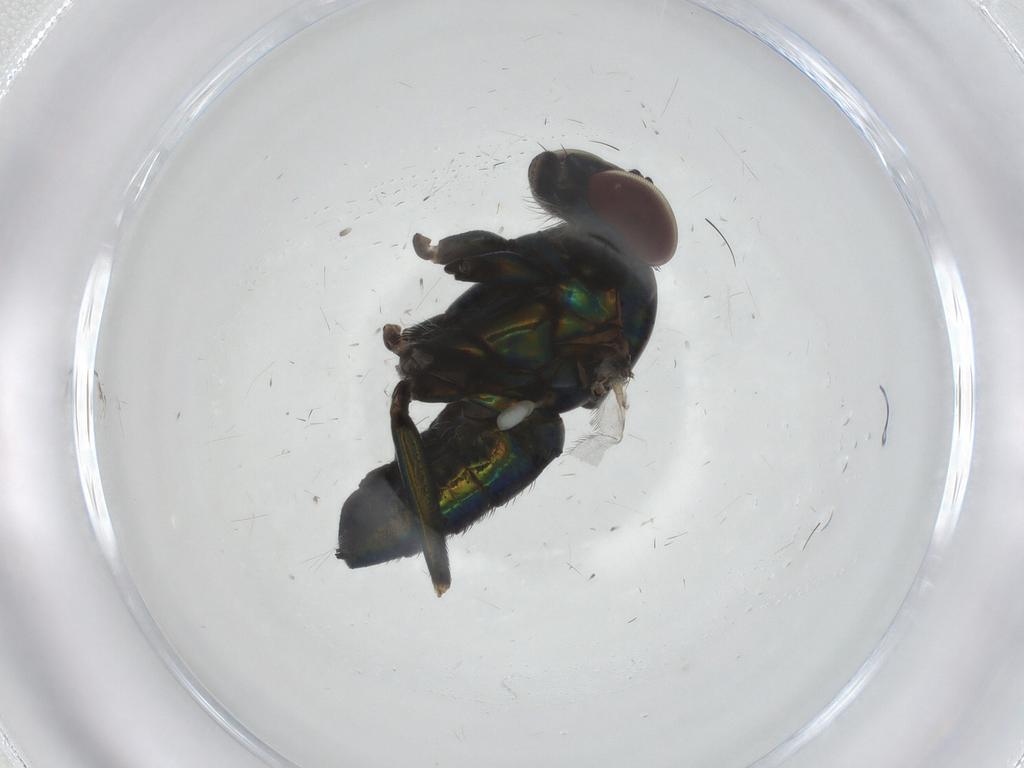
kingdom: Animalia
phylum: Arthropoda
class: Insecta
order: Diptera
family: Dolichopodidae
